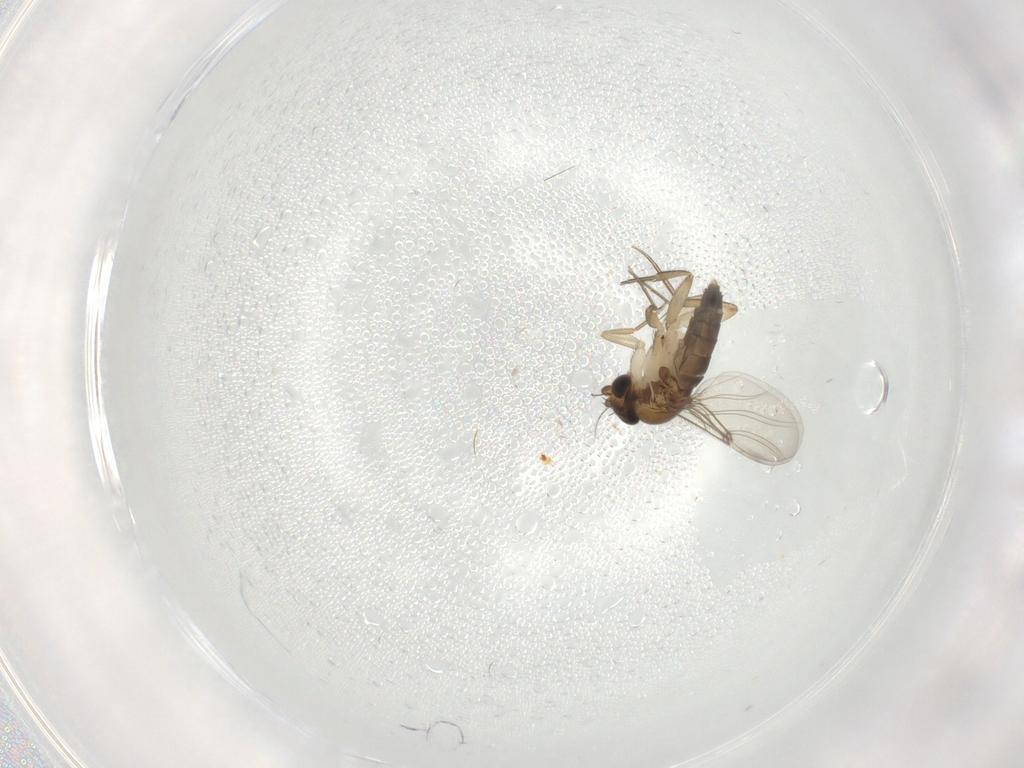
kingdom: Animalia
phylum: Arthropoda
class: Insecta
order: Diptera
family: Phoridae
